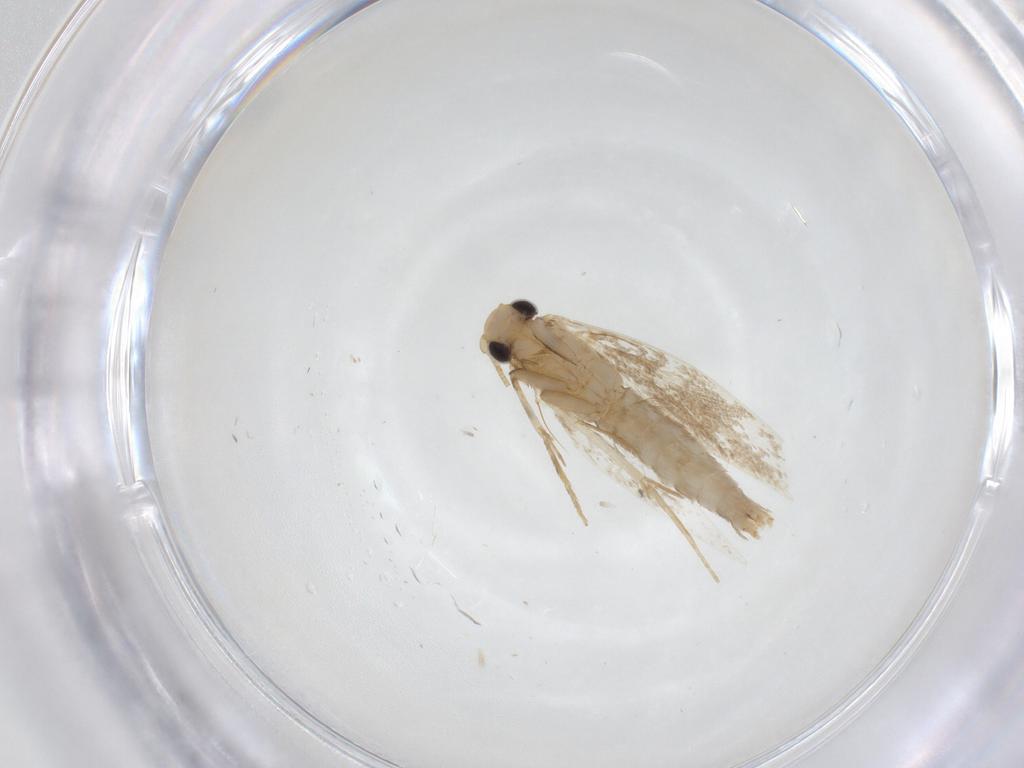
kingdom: Animalia
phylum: Arthropoda
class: Insecta
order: Lepidoptera
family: Tineidae
